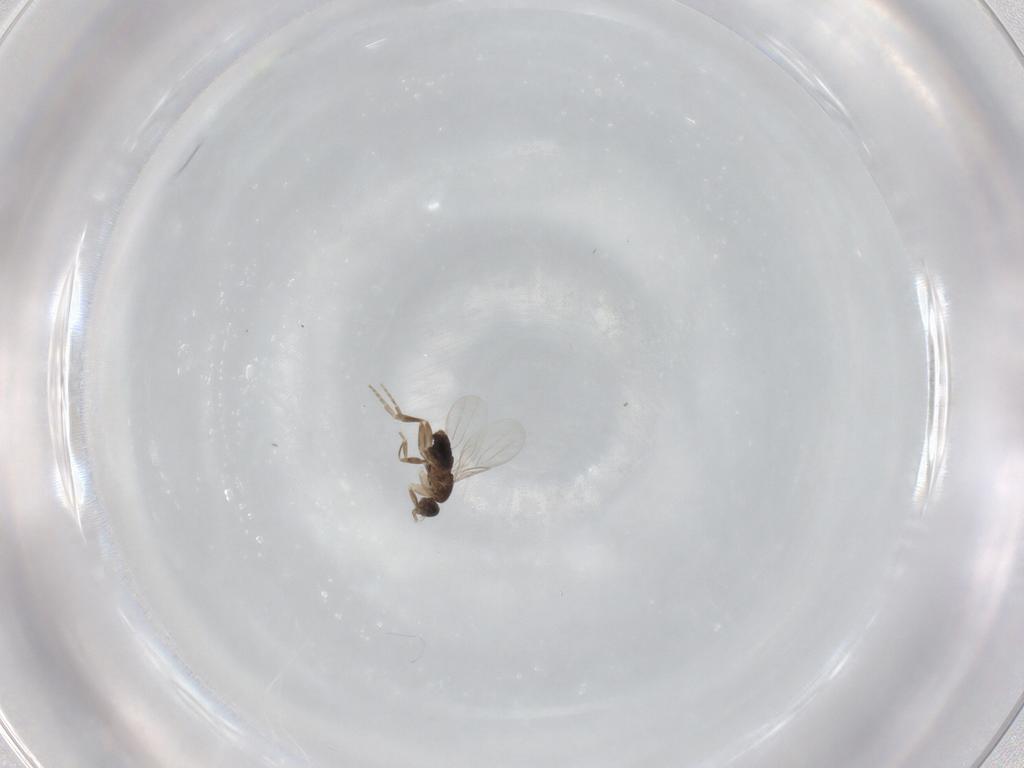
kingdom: Animalia
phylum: Arthropoda
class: Insecta
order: Diptera
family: Phoridae
